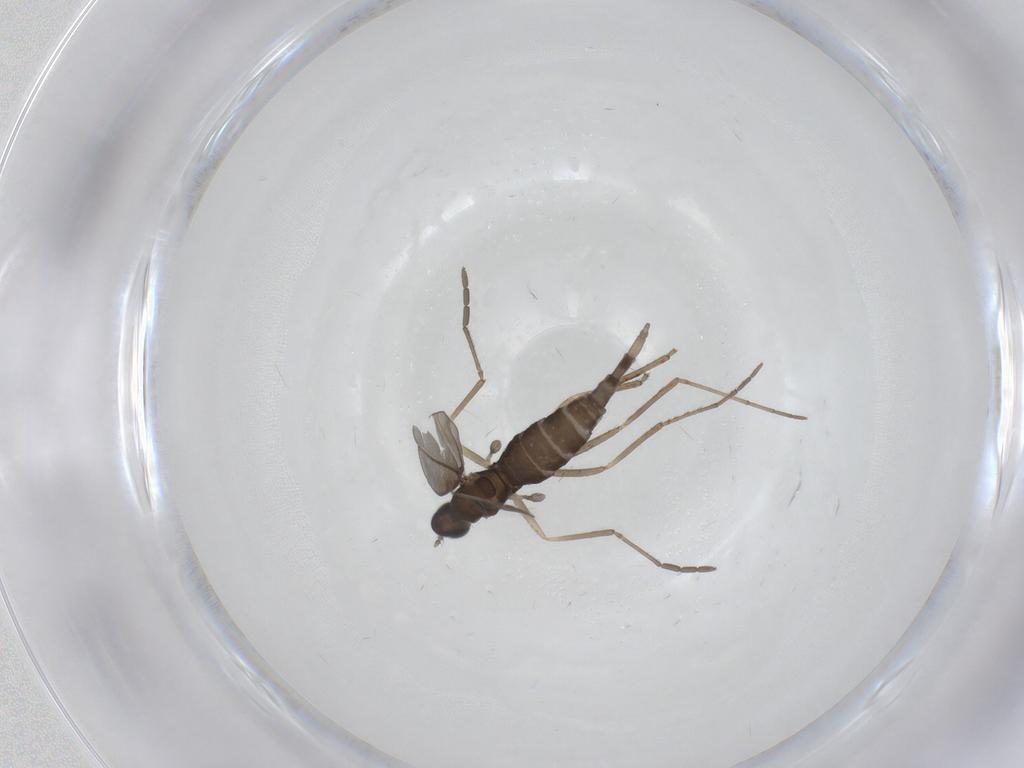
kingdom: Animalia
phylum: Arthropoda
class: Insecta
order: Diptera
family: Cecidomyiidae
